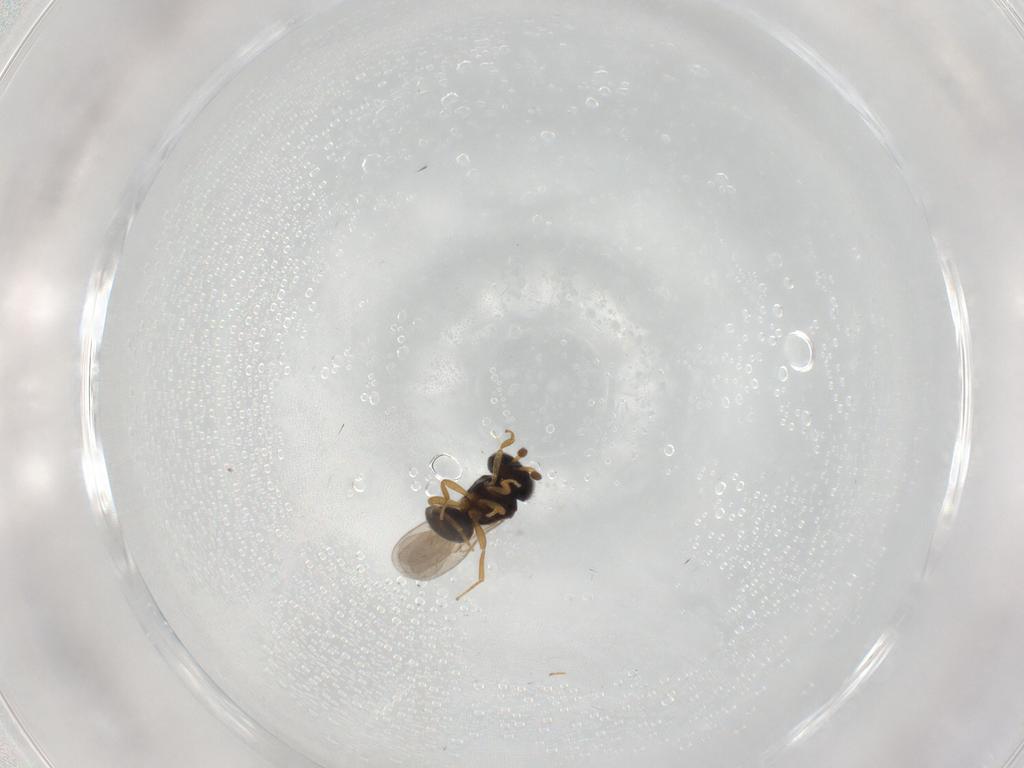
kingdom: Animalia
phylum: Arthropoda
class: Insecta
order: Hymenoptera
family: Scelionidae
